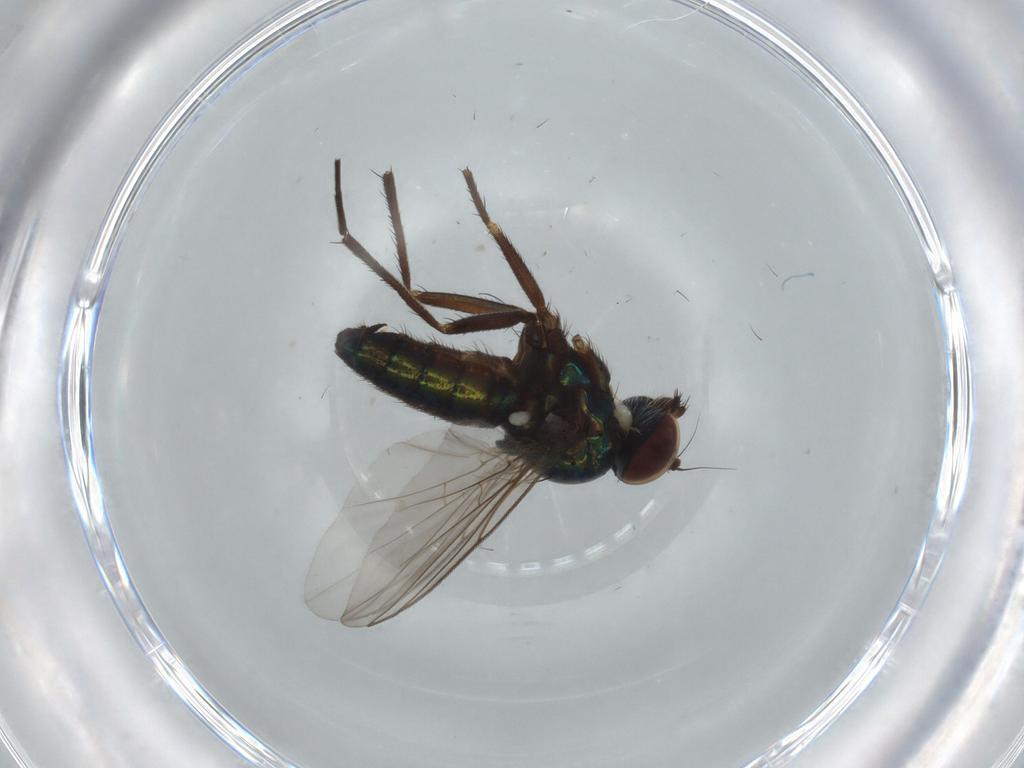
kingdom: Animalia
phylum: Arthropoda
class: Insecta
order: Diptera
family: Dolichopodidae
